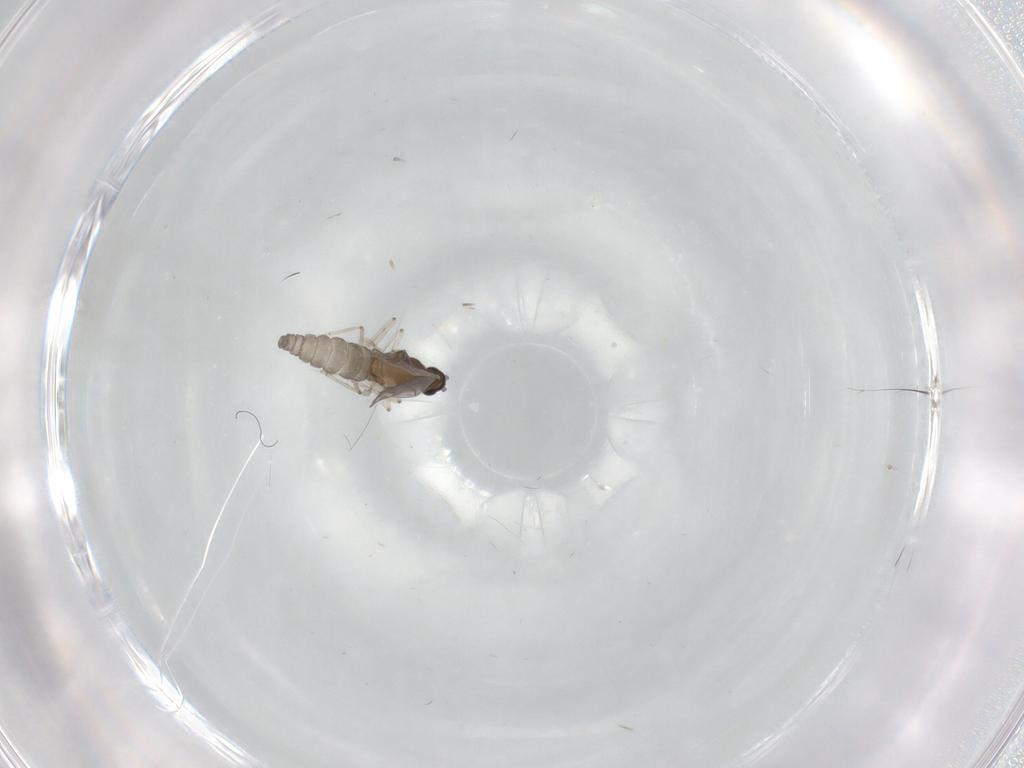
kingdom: Animalia
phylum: Arthropoda
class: Insecta
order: Diptera
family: Cecidomyiidae
